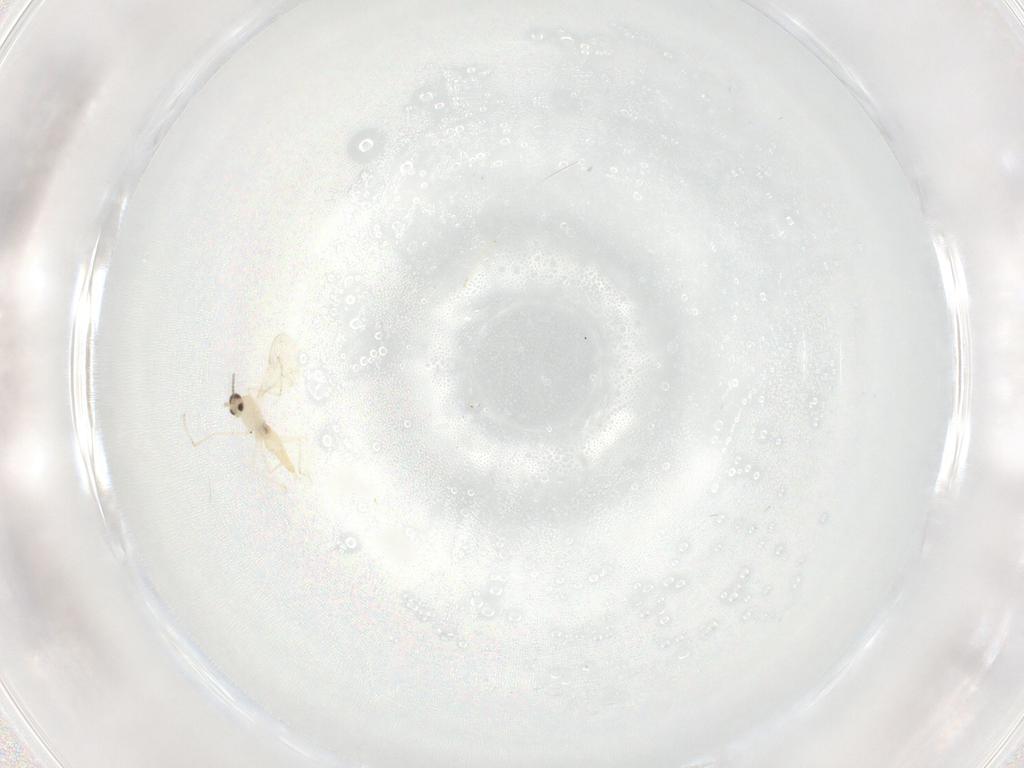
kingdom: Animalia
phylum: Arthropoda
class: Insecta
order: Diptera
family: Cecidomyiidae
